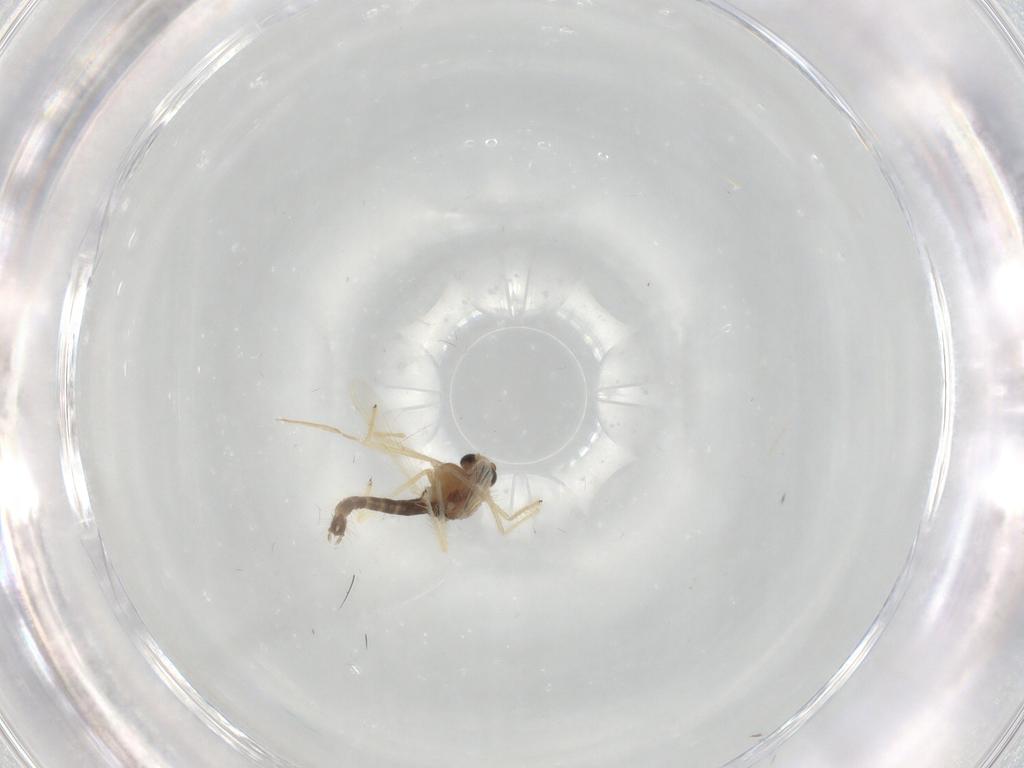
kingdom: Animalia
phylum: Arthropoda
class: Insecta
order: Diptera
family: Chironomidae
